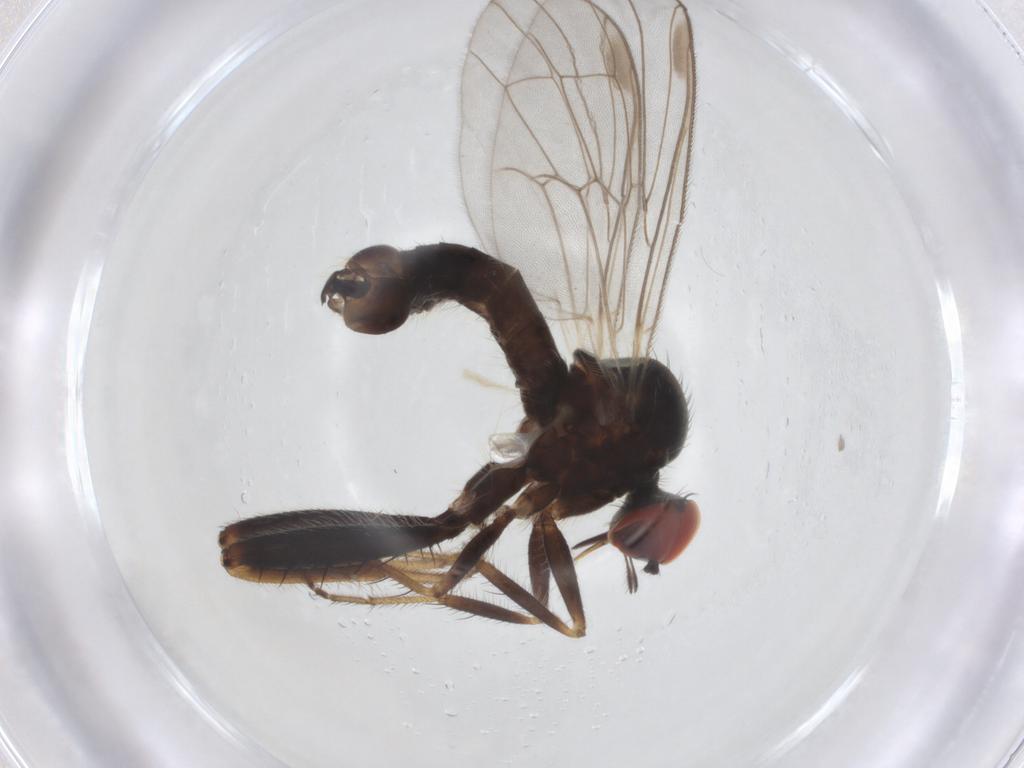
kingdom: Animalia
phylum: Arthropoda
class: Insecta
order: Diptera
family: Hybotidae
